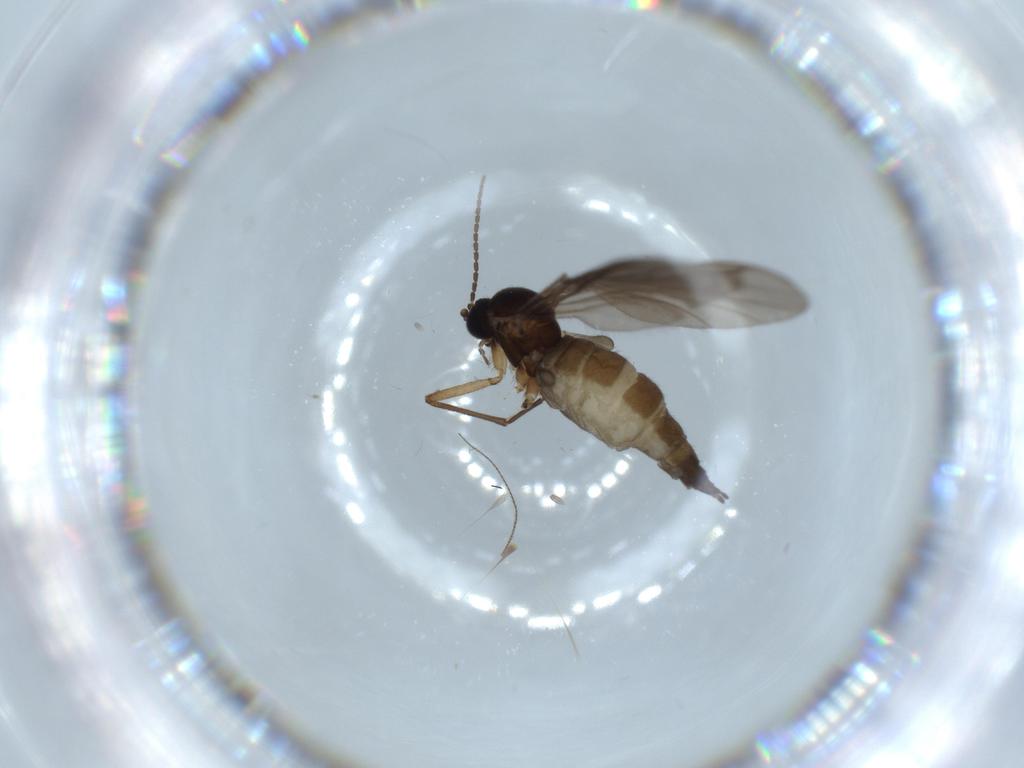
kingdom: Animalia
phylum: Arthropoda
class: Insecta
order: Diptera
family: Sciaridae
